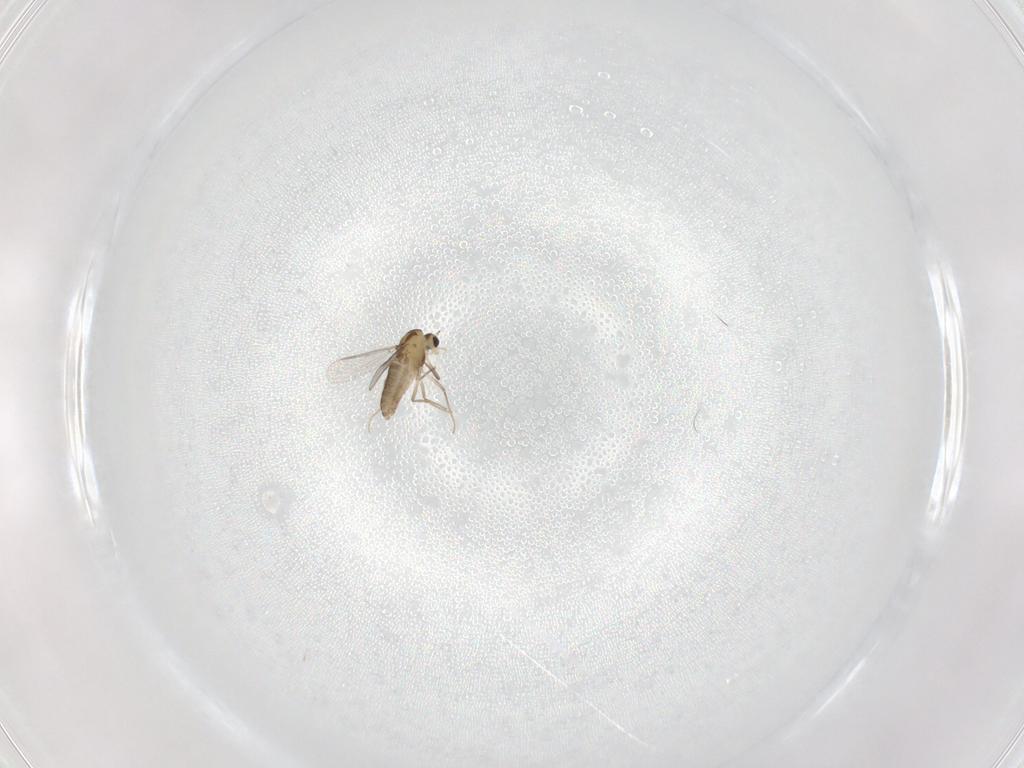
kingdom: Animalia
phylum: Arthropoda
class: Insecta
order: Diptera
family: Chironomidae
